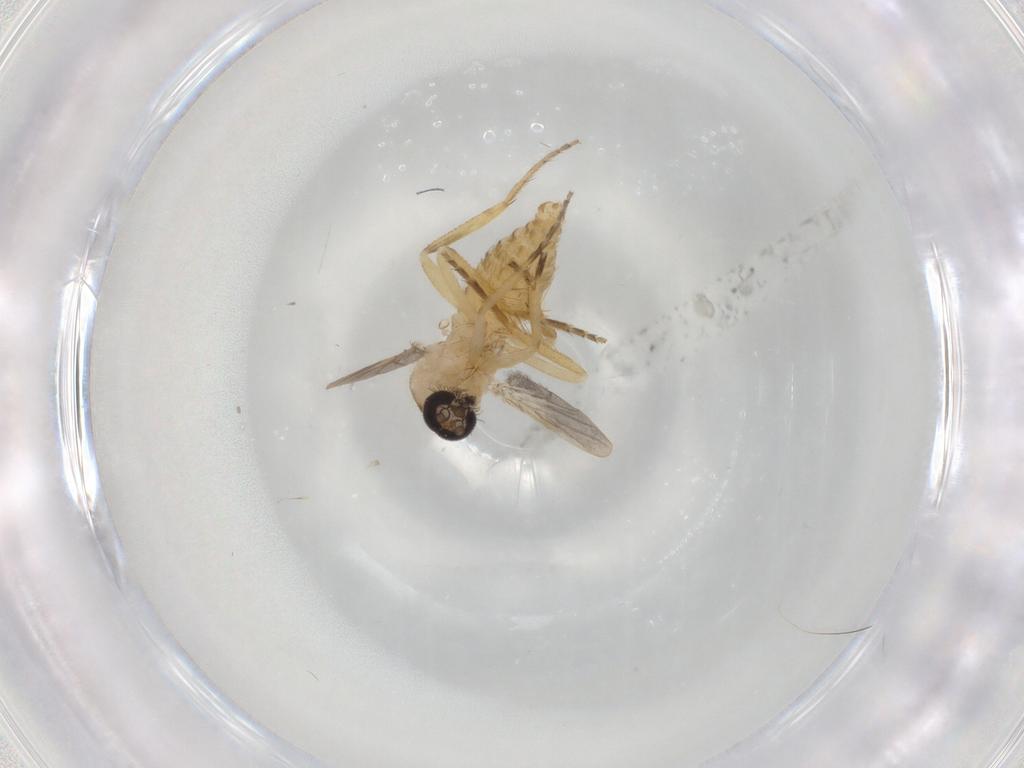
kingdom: Animalia
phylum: Arthropoda
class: Insecta
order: Diptera
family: Ceratopogonidae
